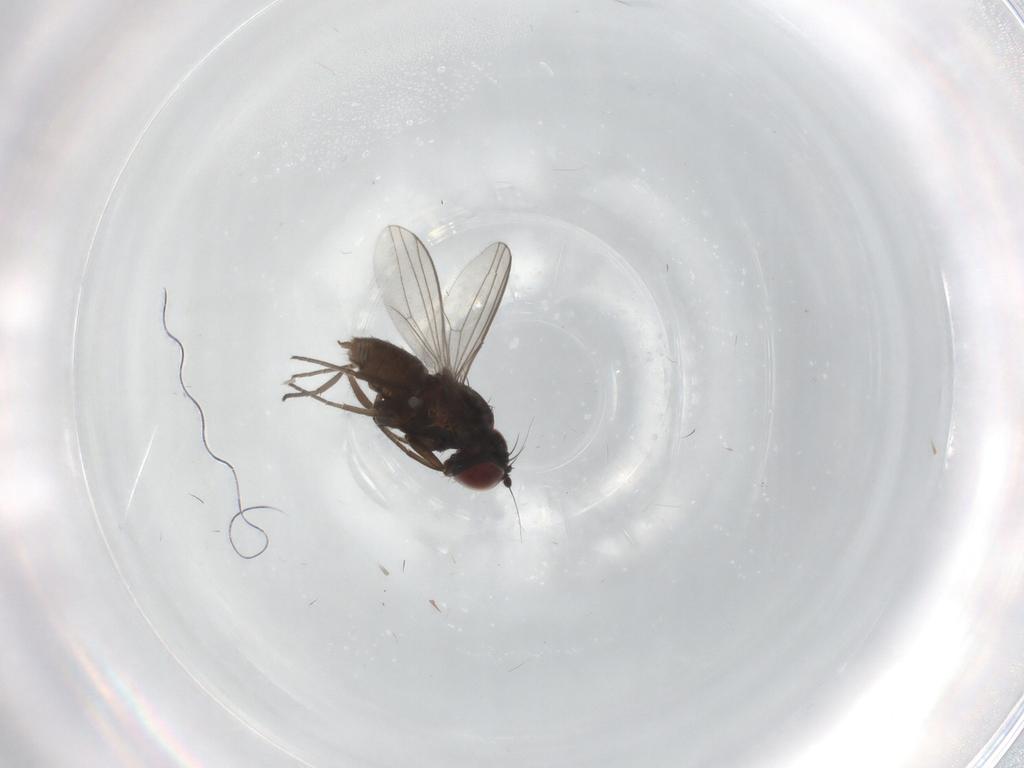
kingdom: Animalia
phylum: Arthropoda
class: Insecta
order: Diptera
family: Dolichopodidae
